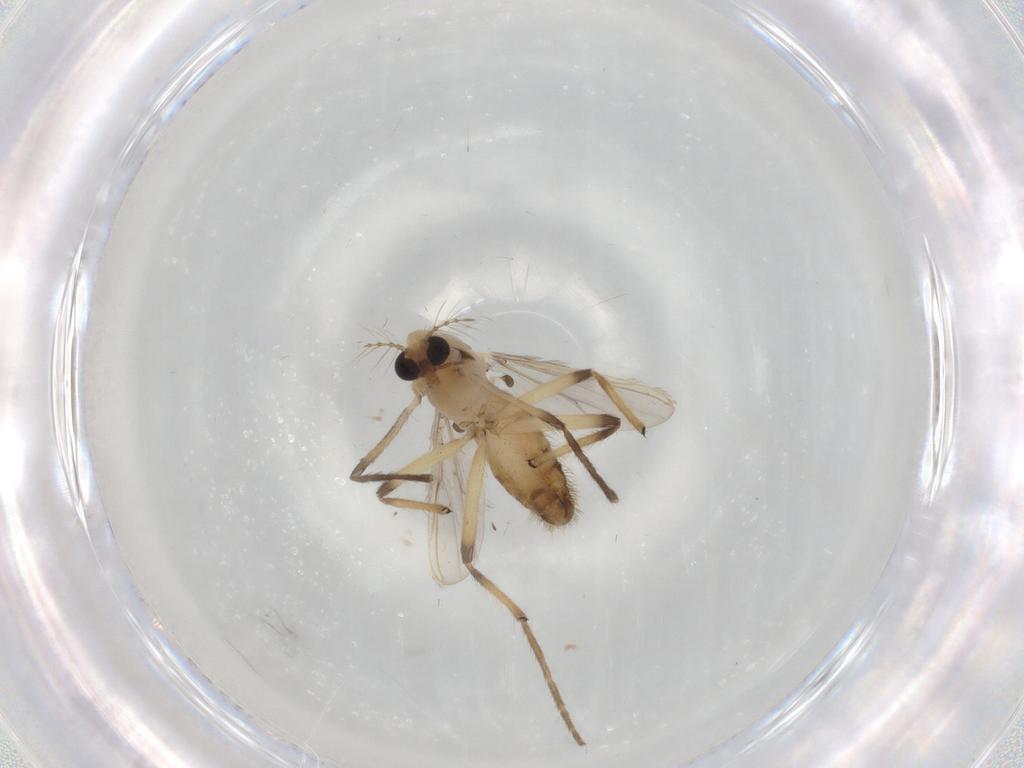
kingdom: Animalia
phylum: Arthropoda
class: Insecta
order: Diptera
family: Chironomidae
